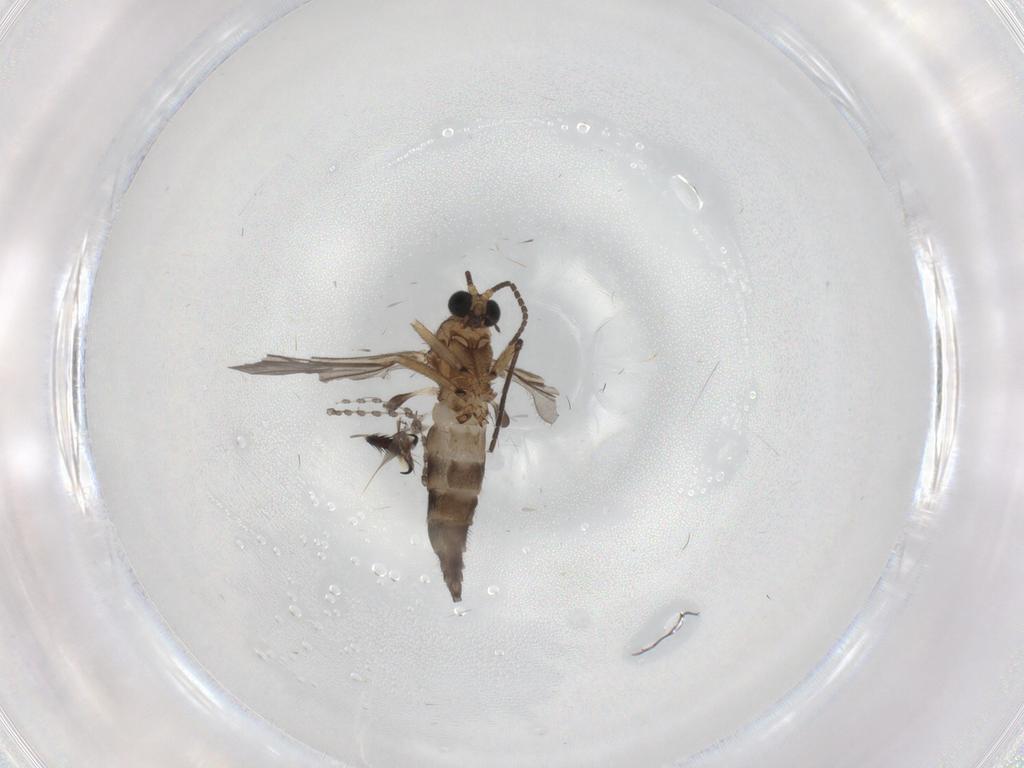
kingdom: Animalia
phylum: Arthropoda
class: Insecta
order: Diptera
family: Sciaridae
